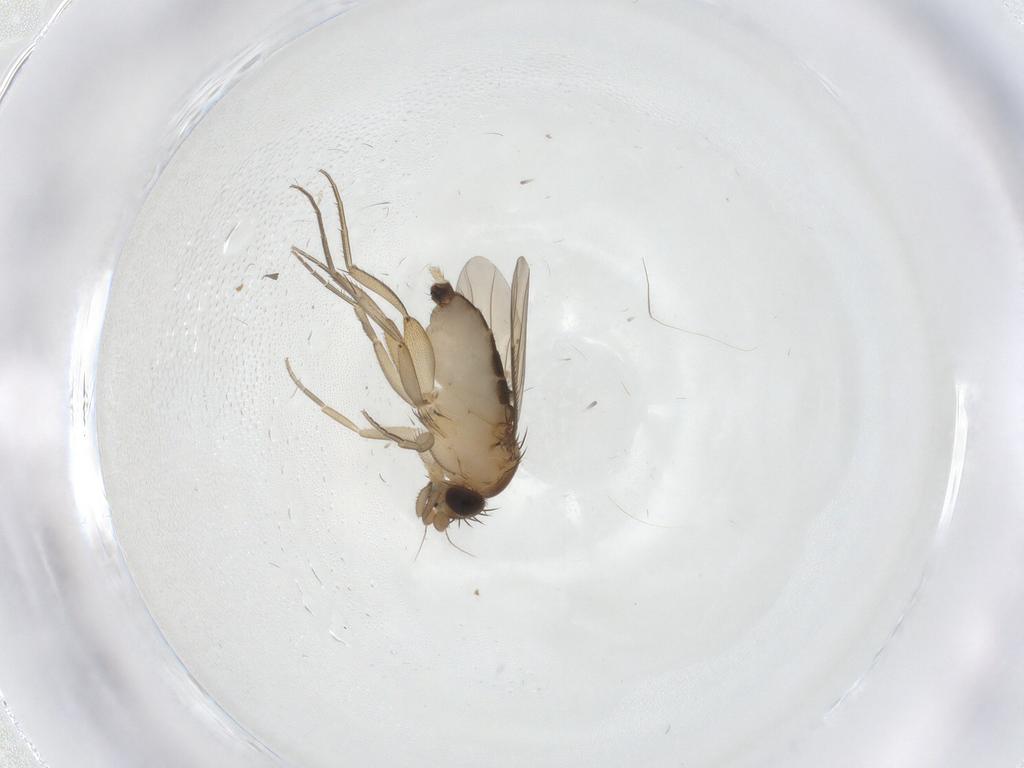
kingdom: Animalia
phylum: Arthropoda
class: Insecta
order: Diptera
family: Phoridae
